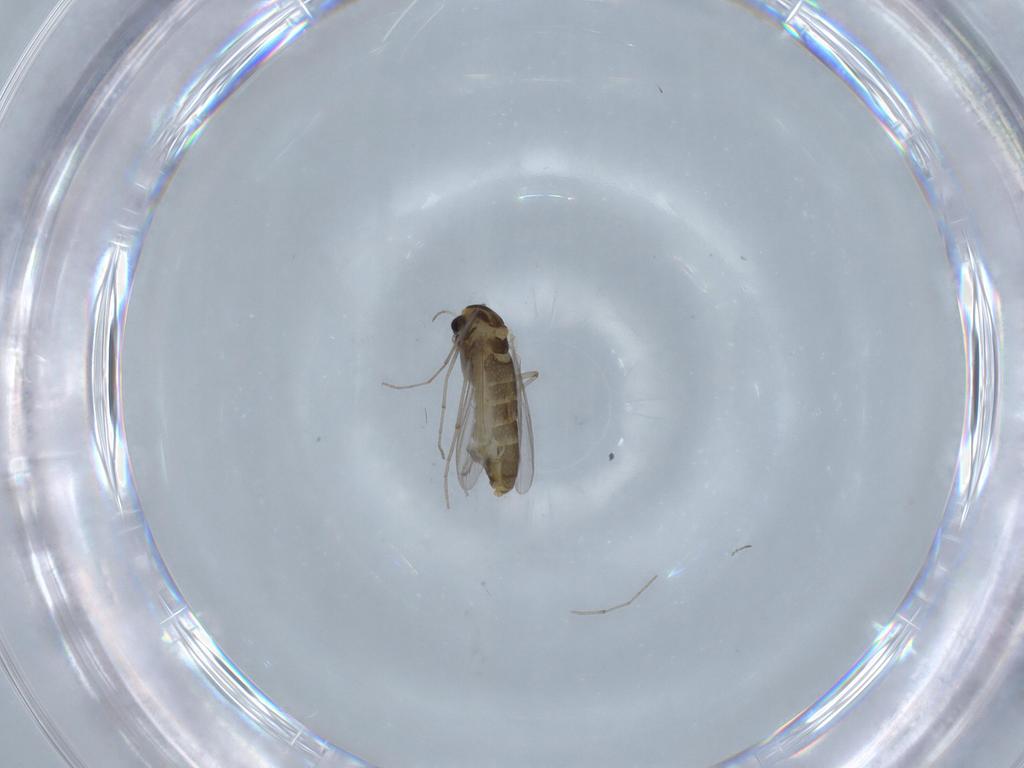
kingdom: Animalia
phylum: Arthropoda
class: Insecta
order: Diptera
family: Chironomidae
